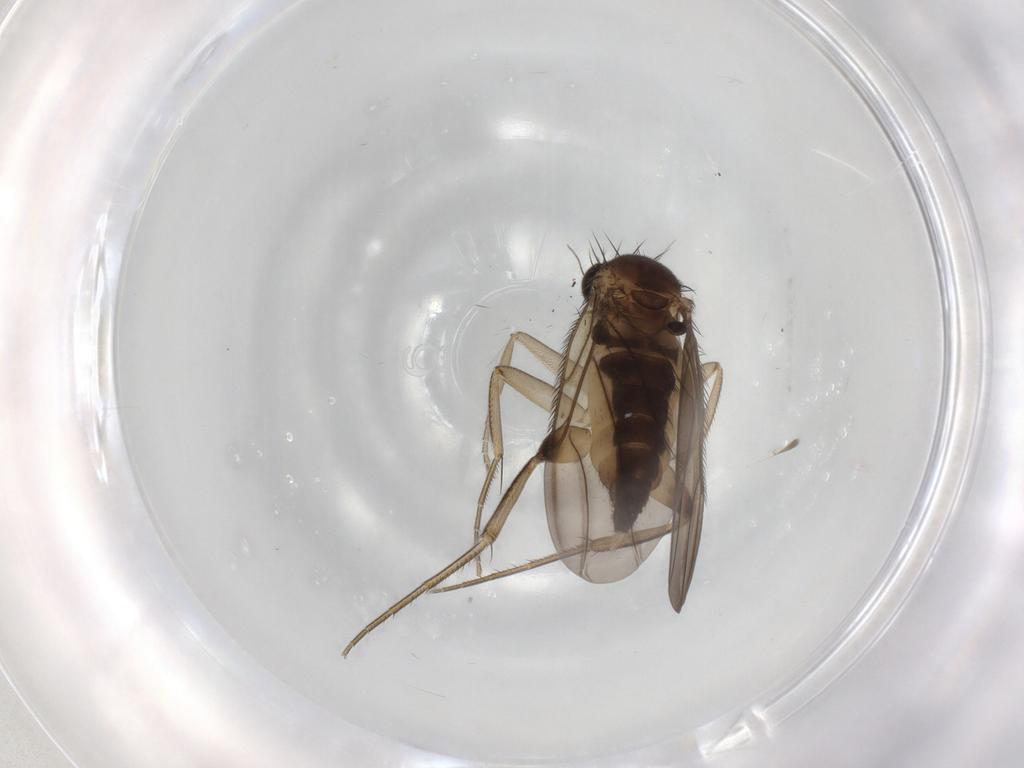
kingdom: Animalia
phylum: Arthropoda
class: Insecta
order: Diptera
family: Phoridae
